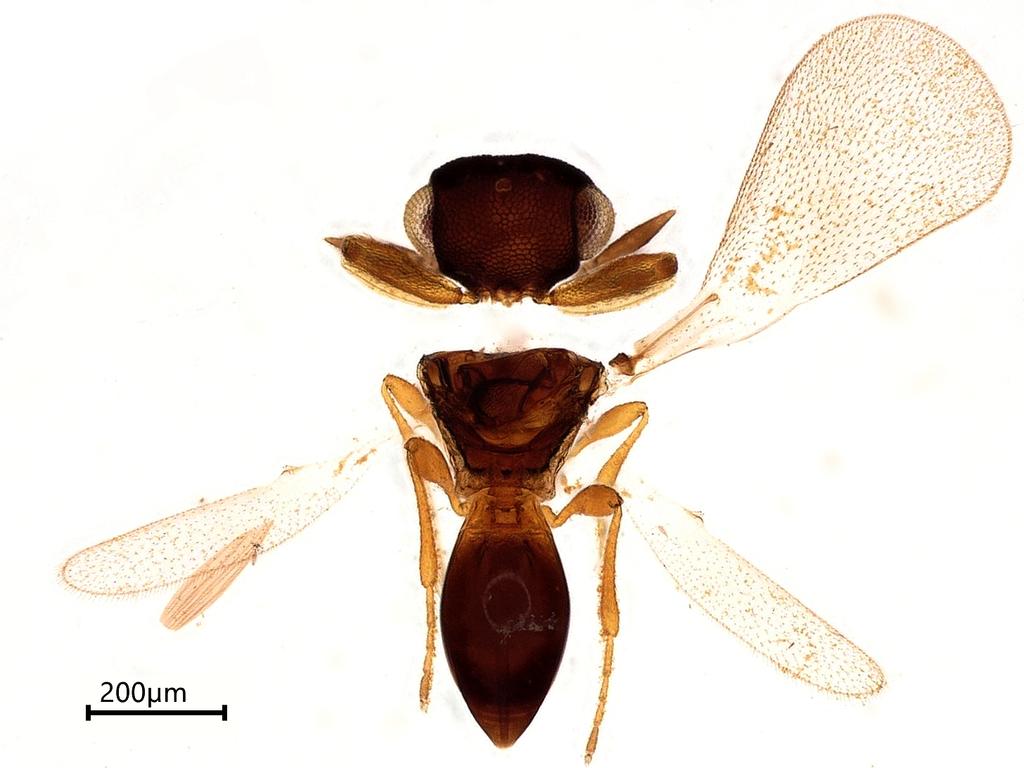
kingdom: Animalia
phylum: Arthropoda
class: Insecta
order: Hymenoptera
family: Platygastridae
